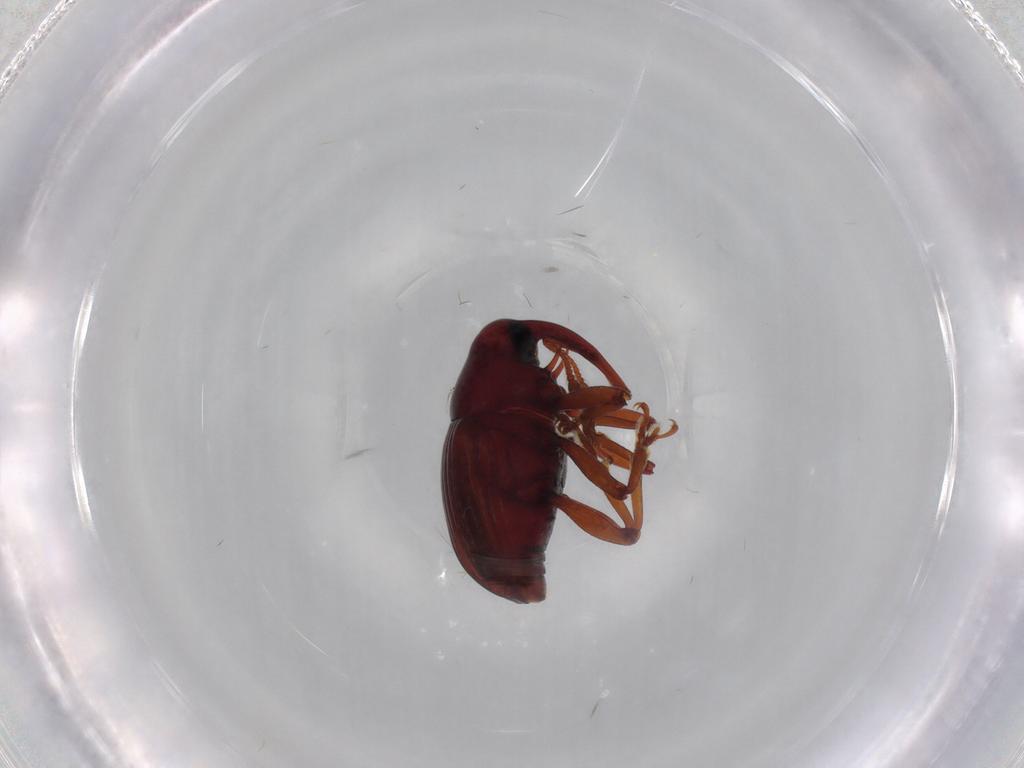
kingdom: Animalia
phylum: Arthropoda
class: Insecta
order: Coleoptera
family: Curculionidae
